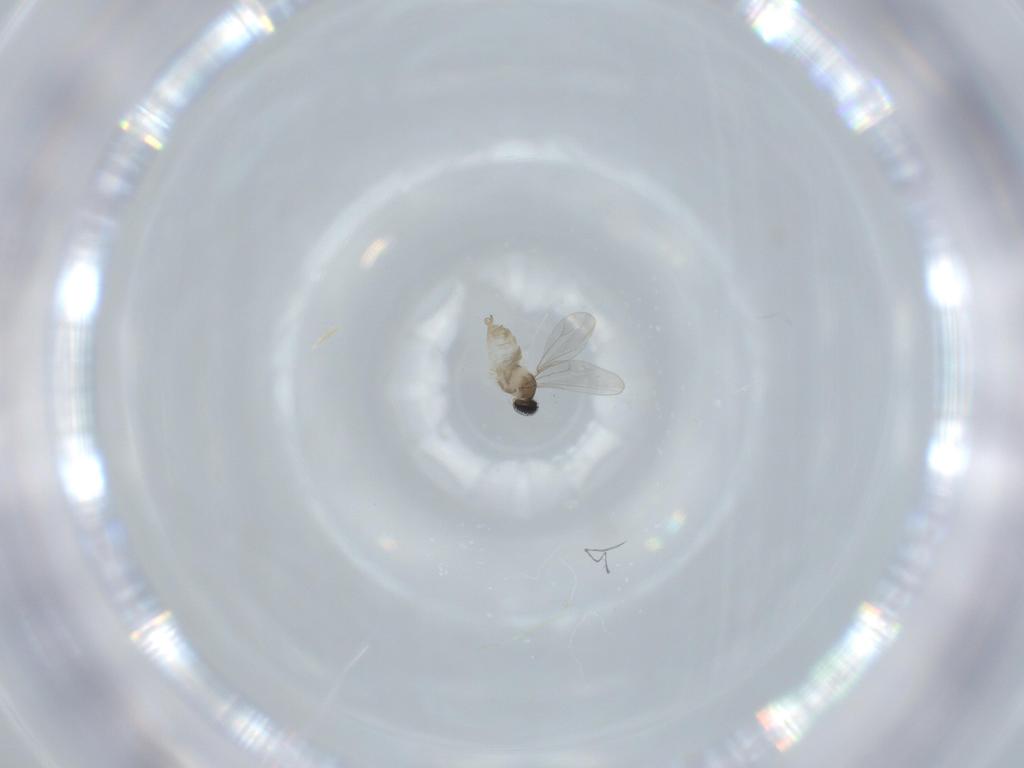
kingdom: Animalia
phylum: Arthropoda
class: Insecta
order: Diptera
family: Cecidomyiidae
